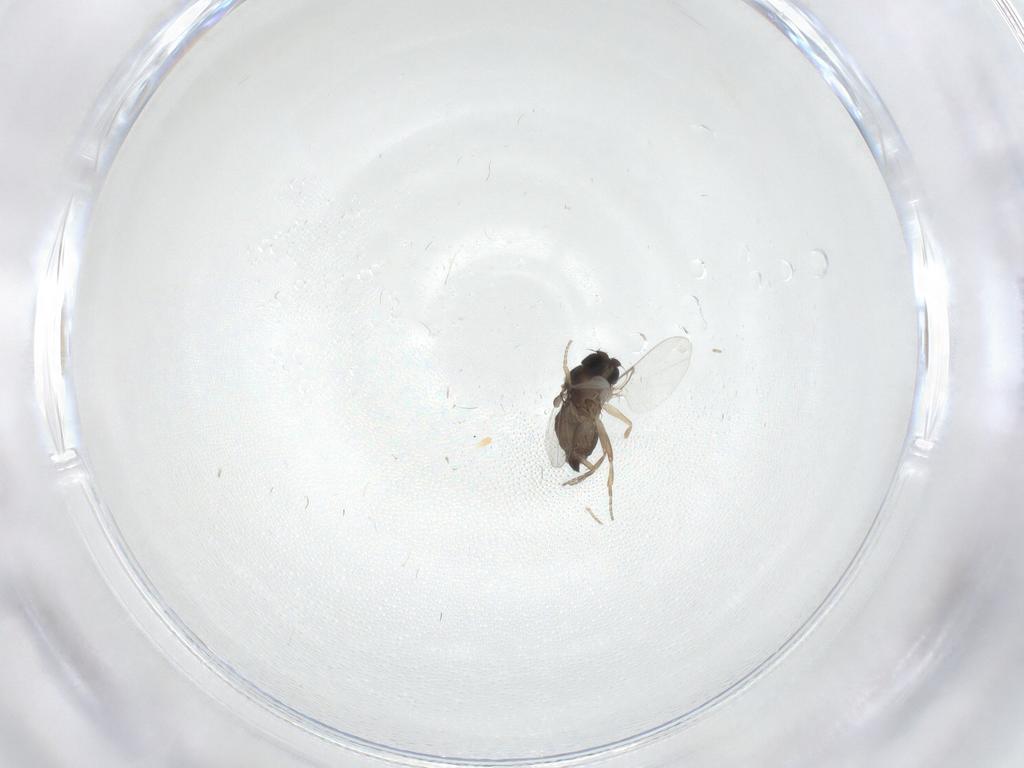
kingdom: Animalia
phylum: Arthropoda
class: Insecta
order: Diptera
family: Phoridae
